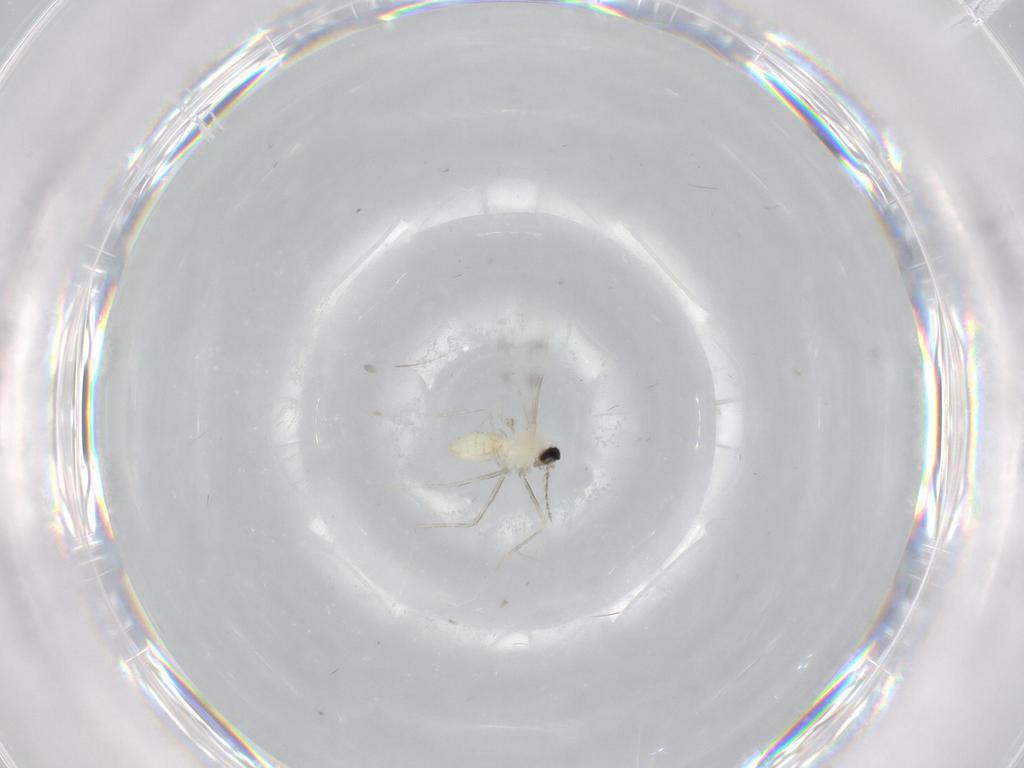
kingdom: Animalia
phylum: Arthropoda
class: Insecta
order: Diptera
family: Cecidomyiidae
